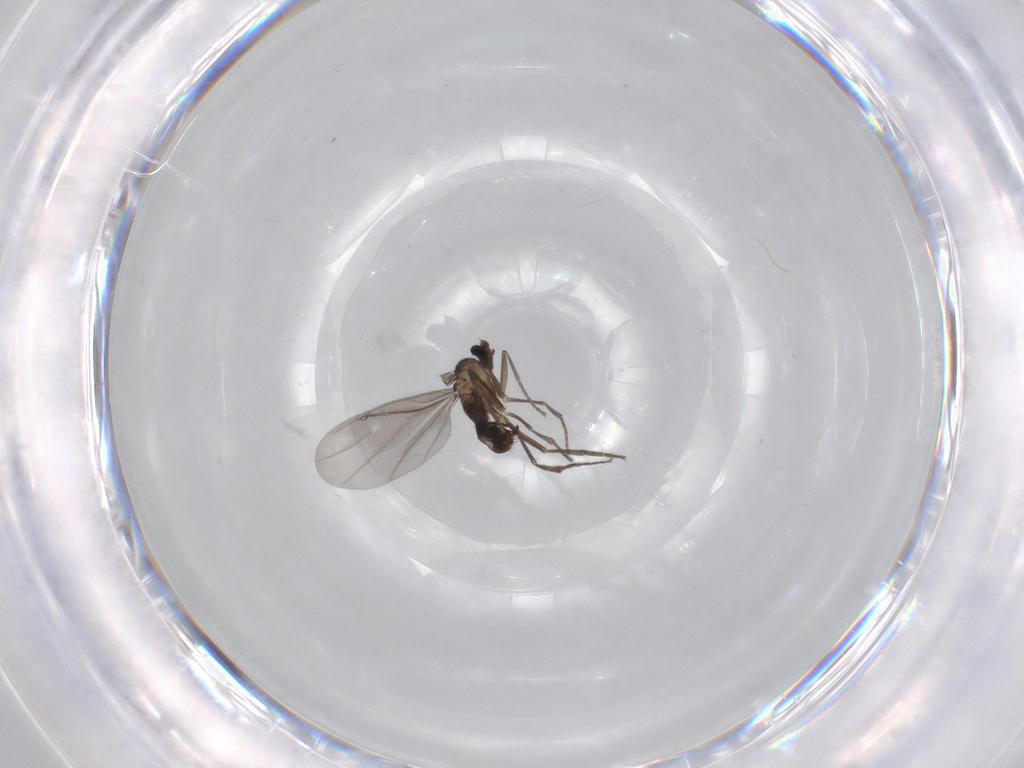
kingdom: Animalia
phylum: Arthropoda
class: Insecta
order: Diptera
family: Phoridae
